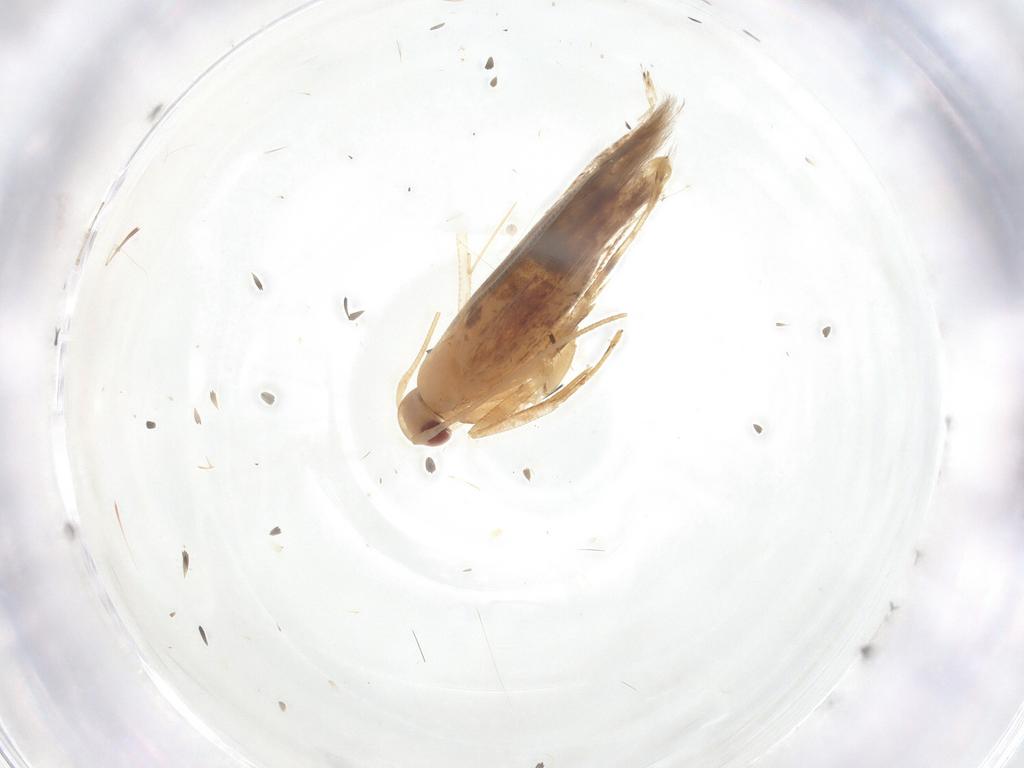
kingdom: Animalia
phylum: Arthropoda
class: Insecta
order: Lepidoptera
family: Cosmopterigidae
